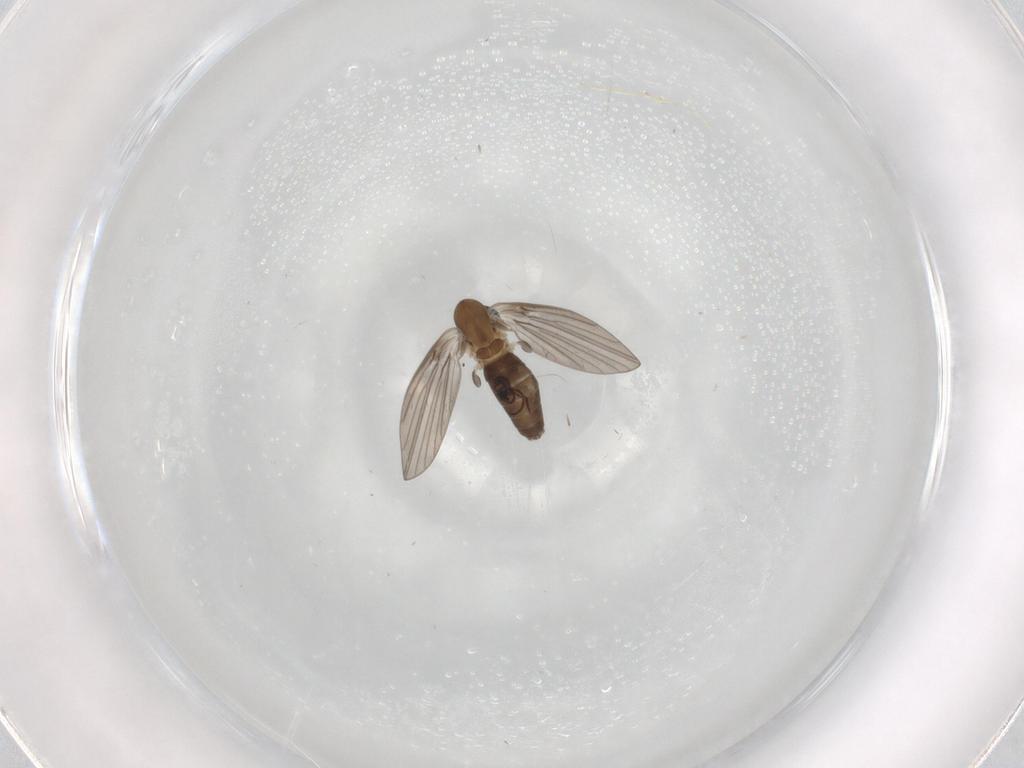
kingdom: Animalia
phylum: Arthropoda
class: Insecta
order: Diptera
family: Psychodidae
